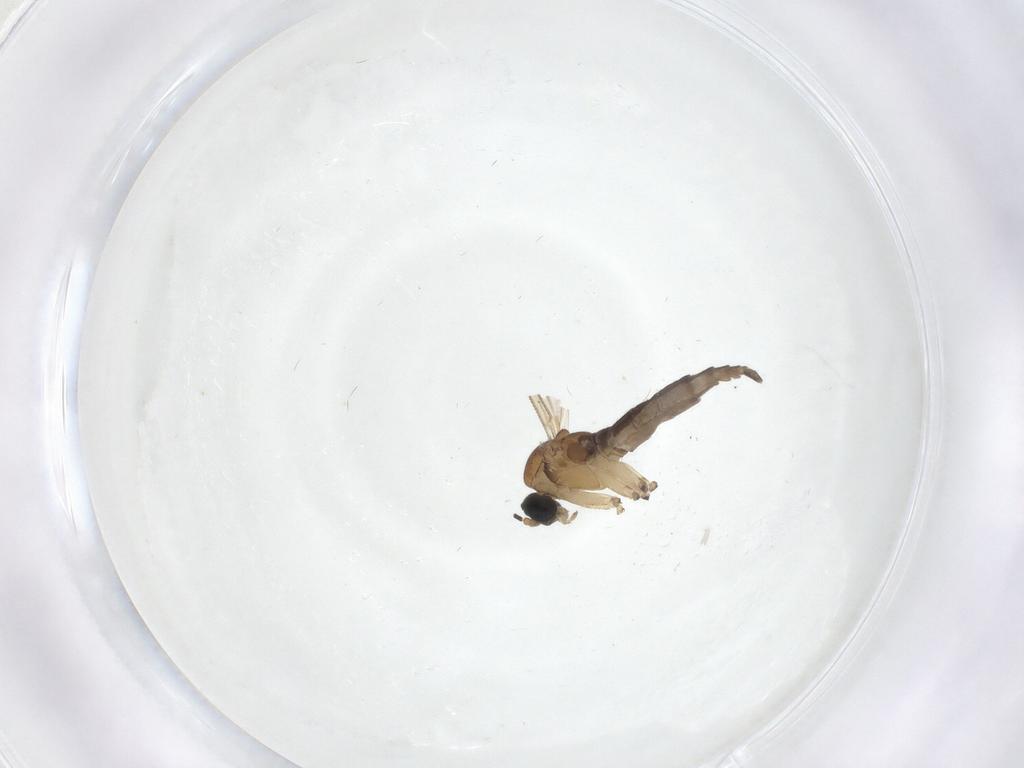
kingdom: Animalia
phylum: Arthropoda
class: Insecta
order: Diptera
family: Sciaridae
